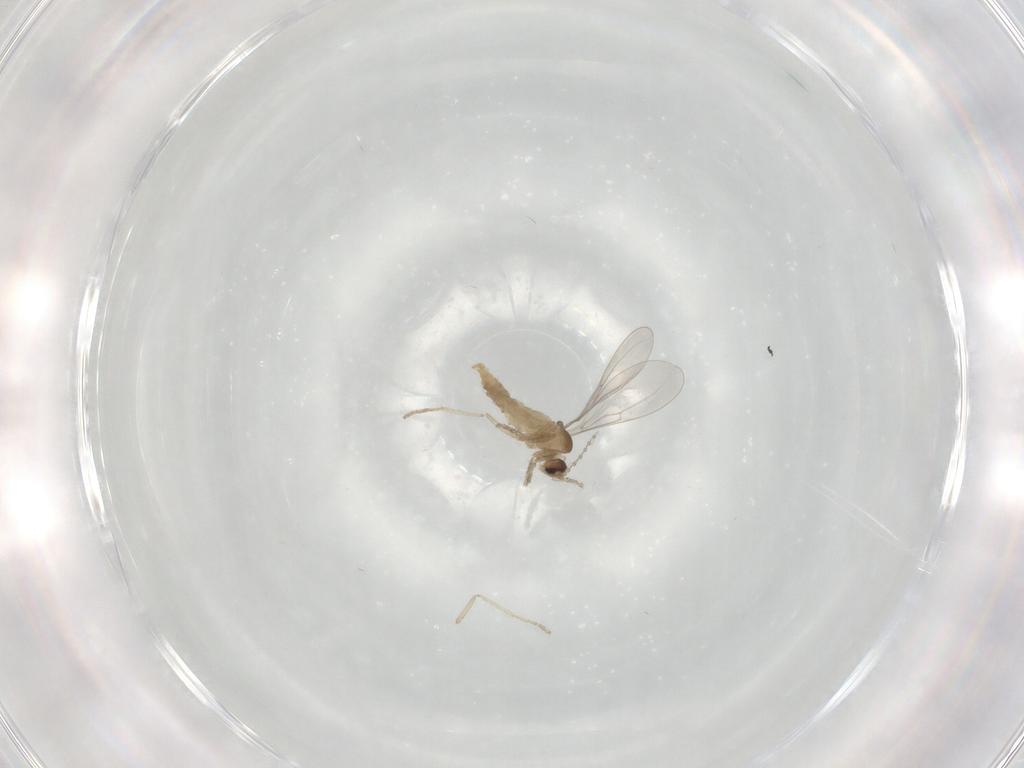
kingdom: Animalia
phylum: Arthropoda
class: Insecta
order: Diptera
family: Cecidomyiidae
